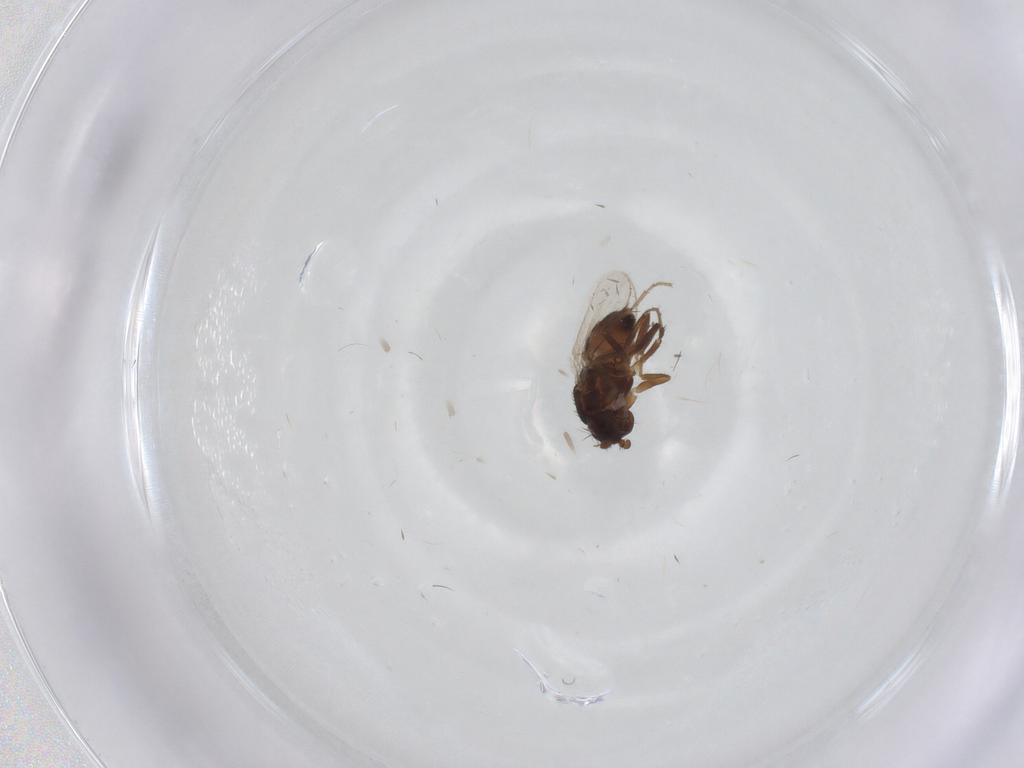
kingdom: Animalia
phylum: Arthropoda
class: Insecta
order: Diptera
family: Sphaeroceridae
